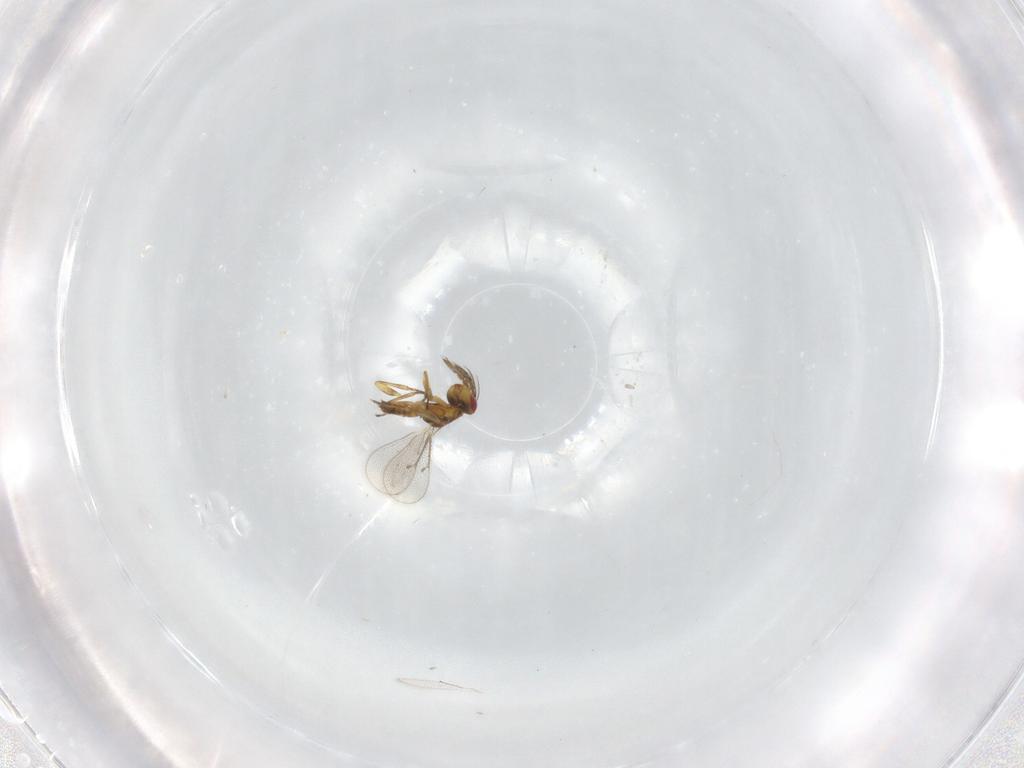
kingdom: Animalia
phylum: Arthropoda
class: Insecta
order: Hymenoptera
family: Eulophidae
